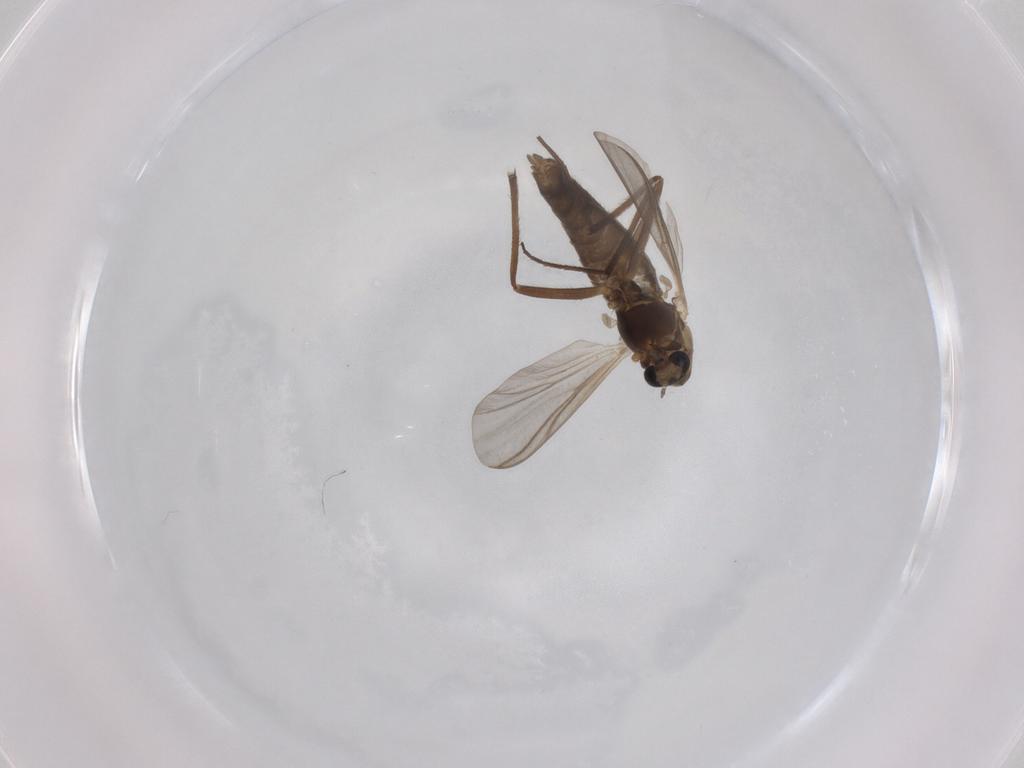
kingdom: Animalia
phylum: Arthropoda
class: Insecta
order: Diptera
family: Chironomidae
